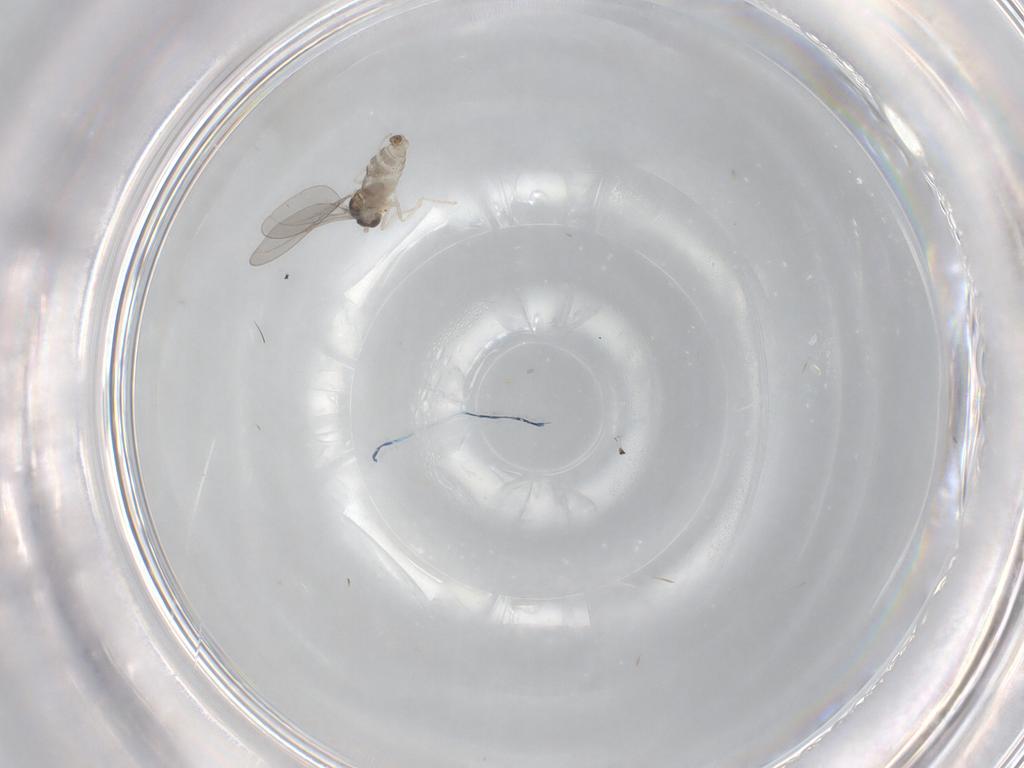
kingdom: Animalia
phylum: Arthropoda
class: Insecta
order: Diptera
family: Cecidomyiidae
